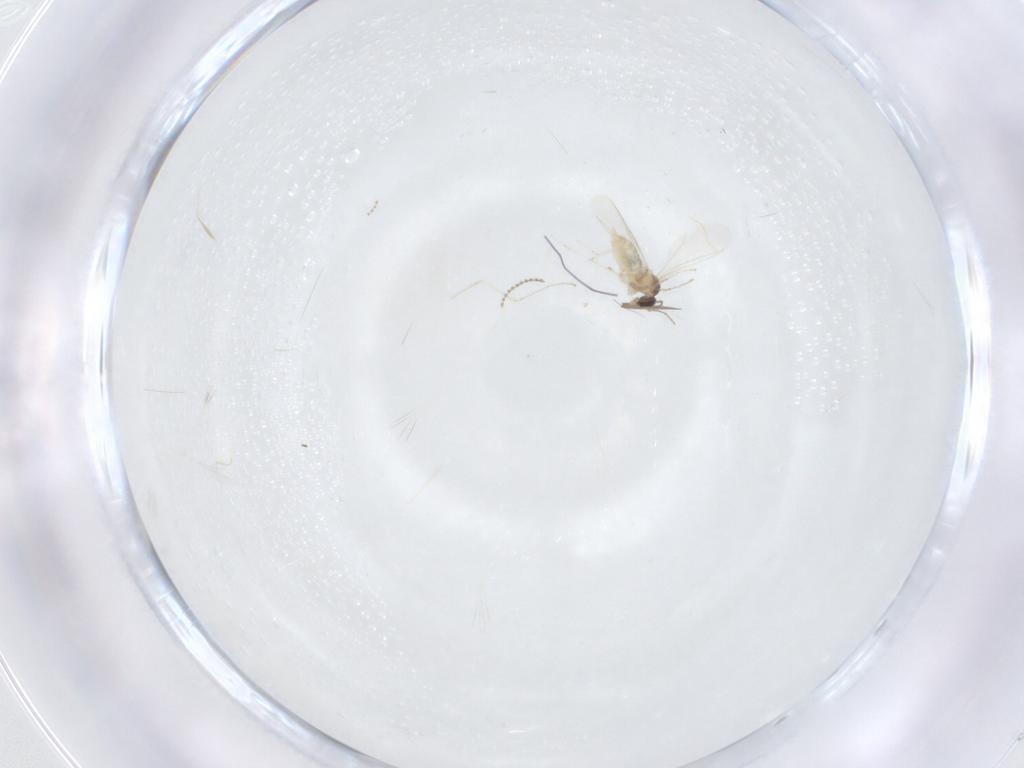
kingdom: Animalia
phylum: Arthropoda
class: Insecta
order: Diptera
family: Cecidomyiidae
